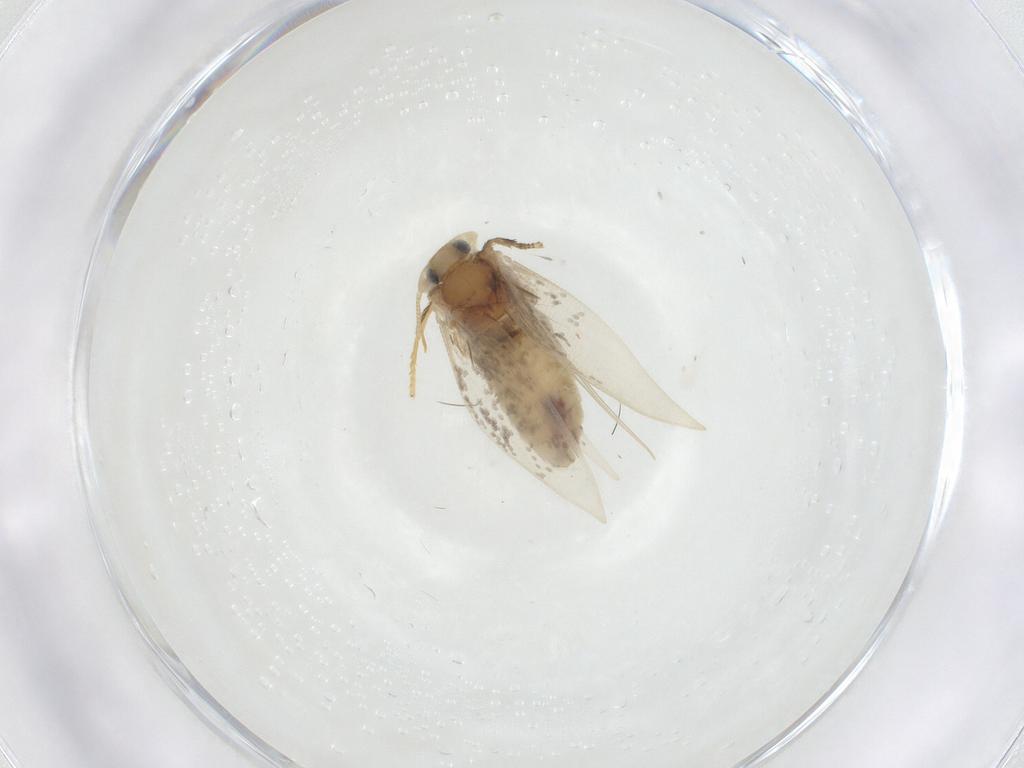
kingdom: Animalia
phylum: Arthropoda
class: Insecta
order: Lepidoptera
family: Nepticulidae
